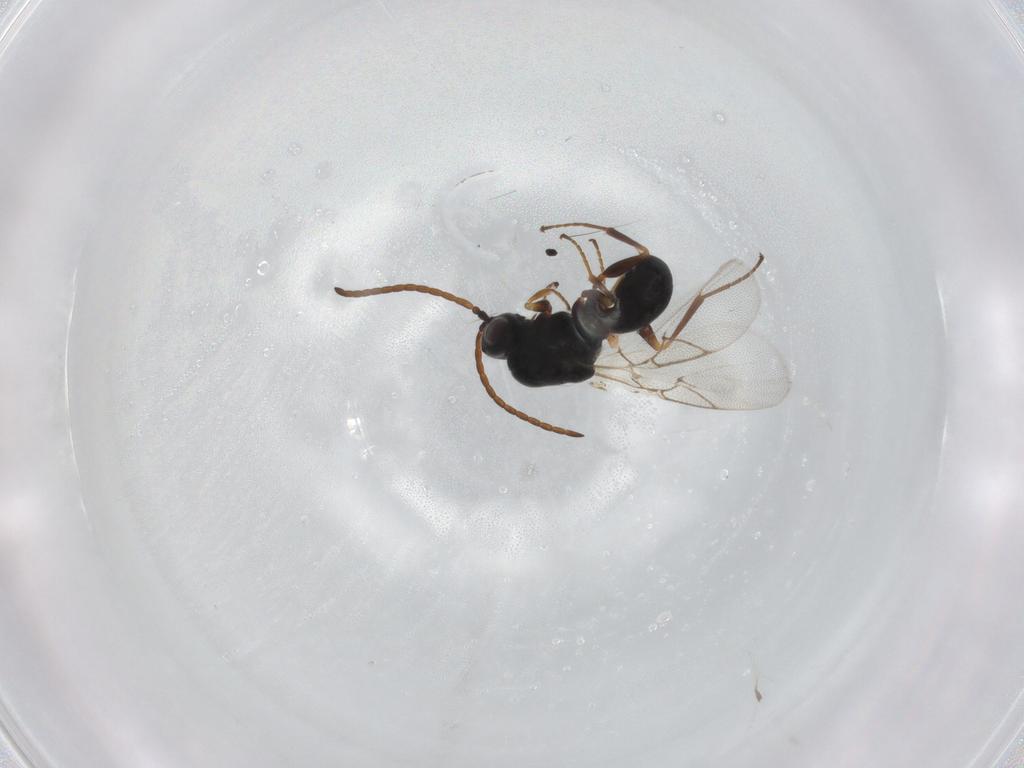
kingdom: Animalia
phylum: Arthropoda
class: Insecta
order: Hymenoptera
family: Figitidae
